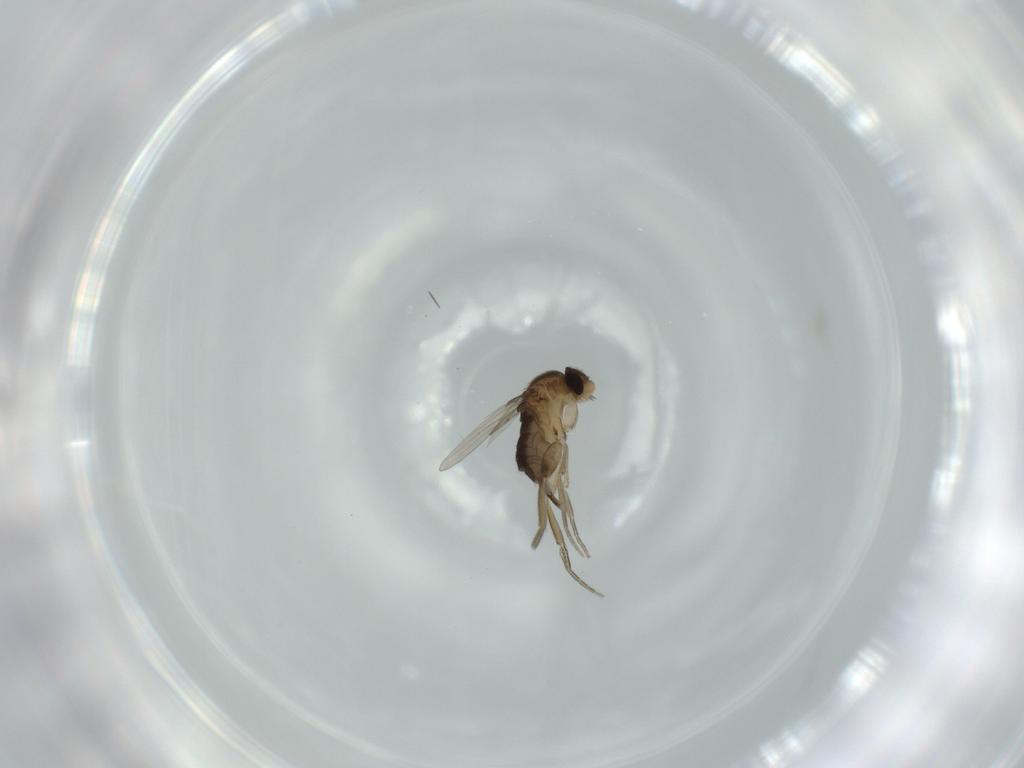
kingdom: Animalia
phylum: Arthropoda
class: Insecta
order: Diptera
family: Phoridae
